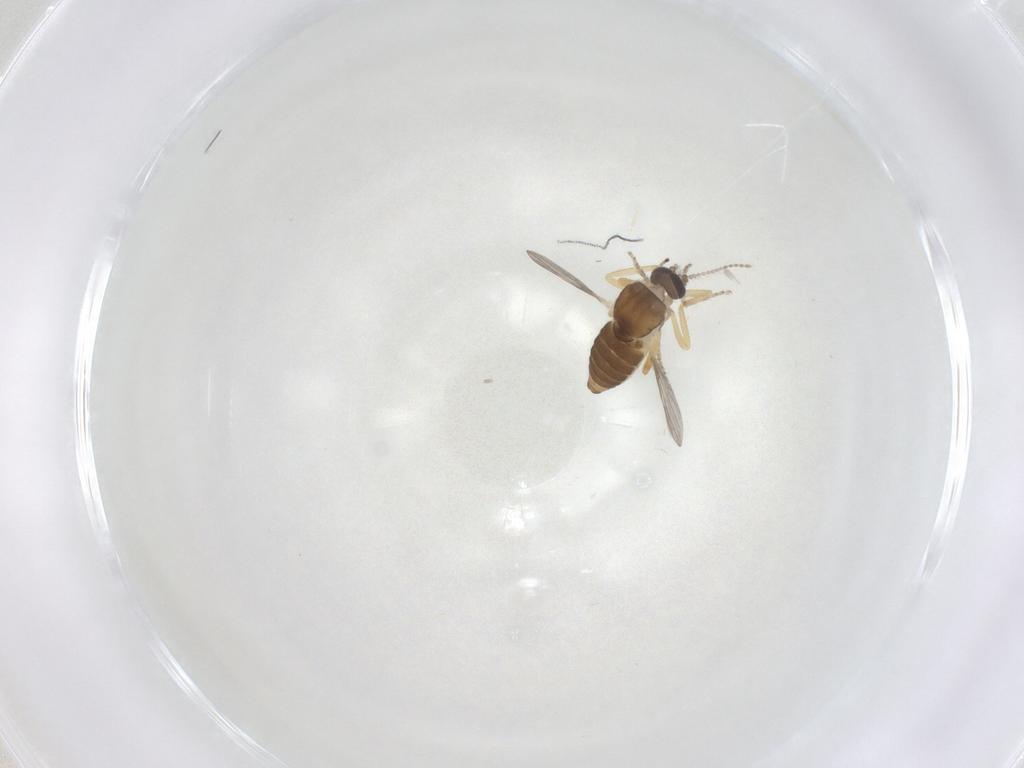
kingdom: Animalia
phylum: Arthropoda
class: Insecta
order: Diptera
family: Ceratopogonidae
